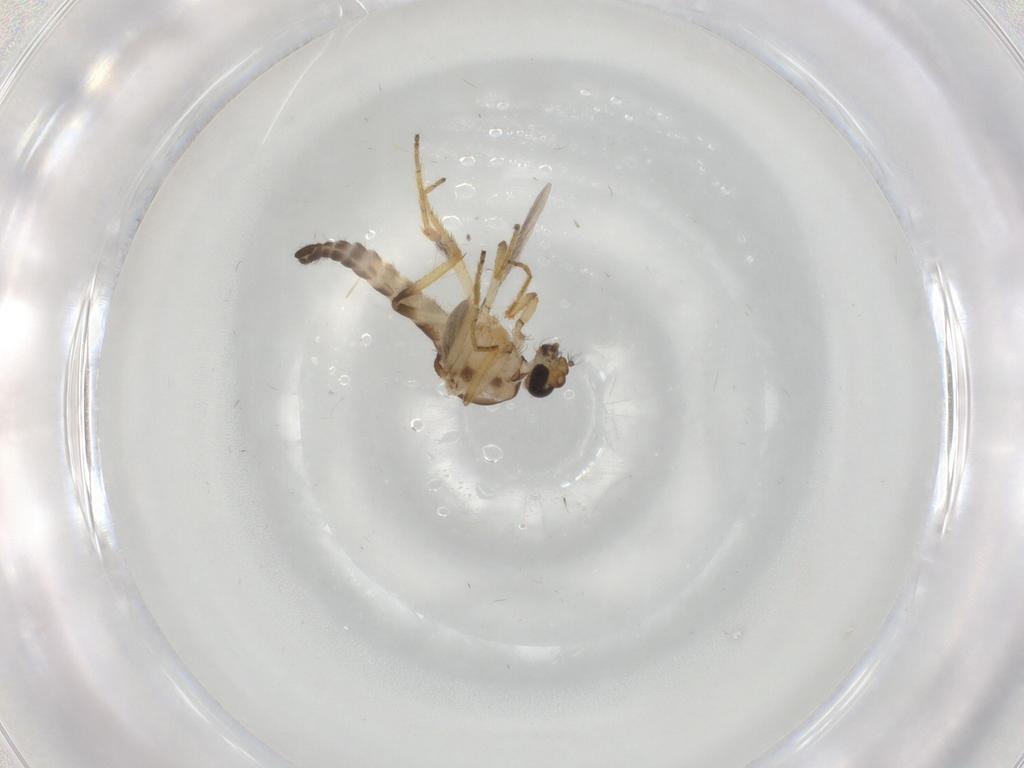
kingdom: Animalia
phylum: Arthropoda
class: Insecta
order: Diptera
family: Ceratopogonidae
